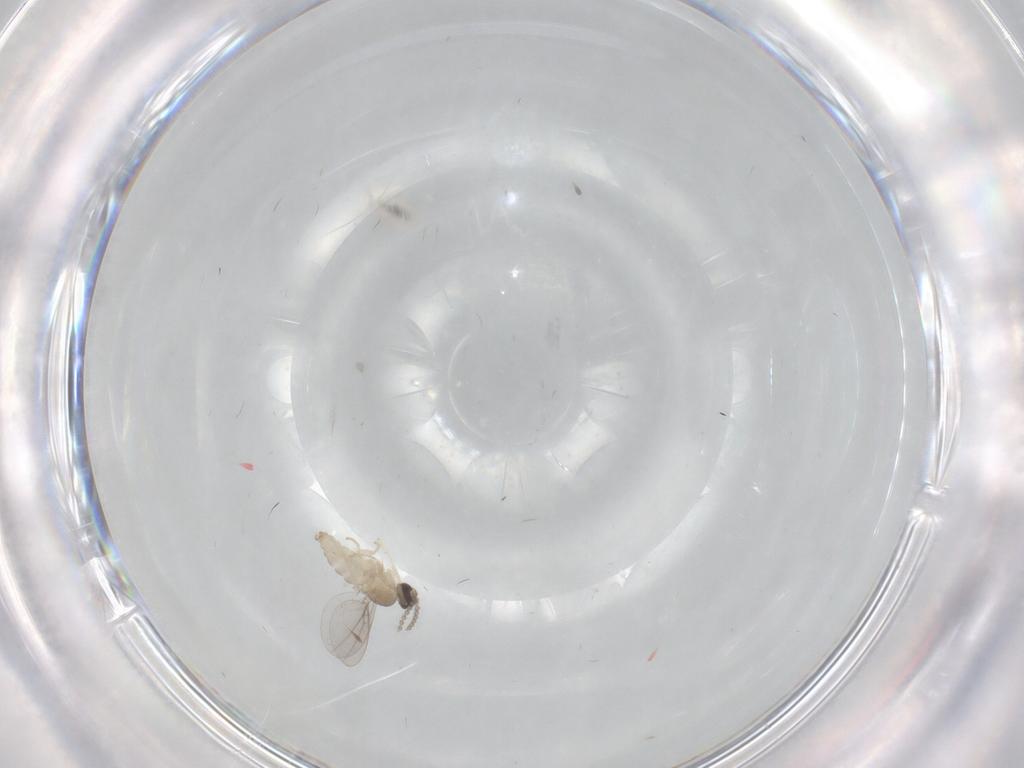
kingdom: Animalia
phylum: Arthropoda
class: Insecta
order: Diptera
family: Cecidomyiidae
